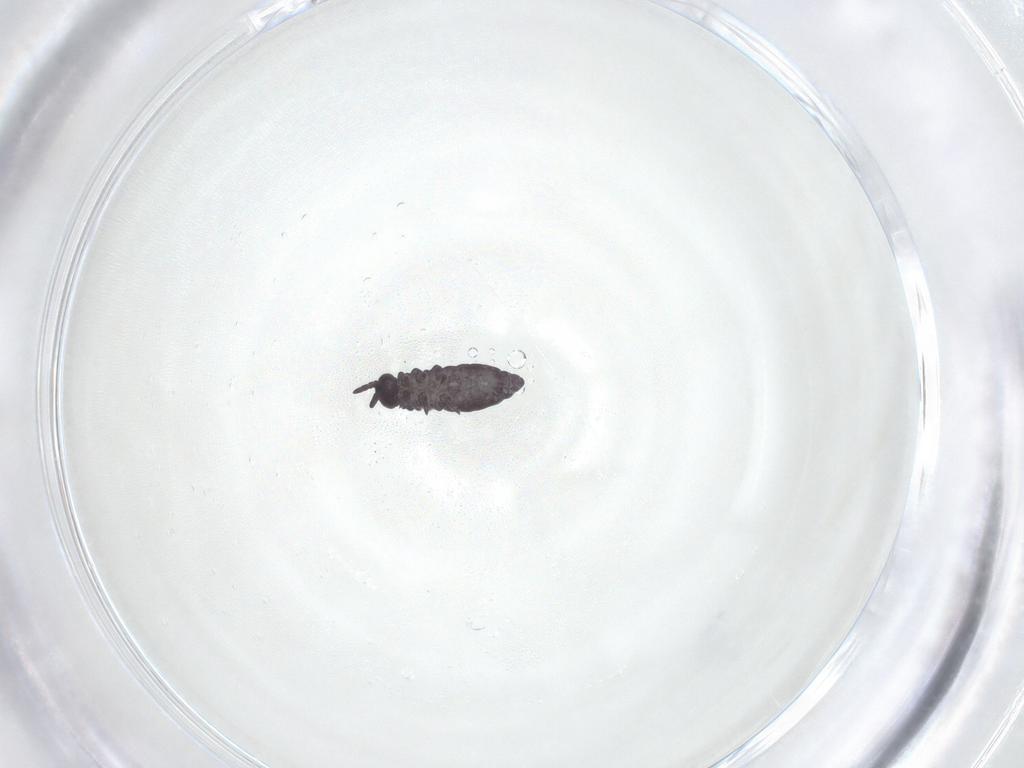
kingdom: Animalia
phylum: Arthropoda
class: Collembola
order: Poduromorpha
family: Hypogastruridae
